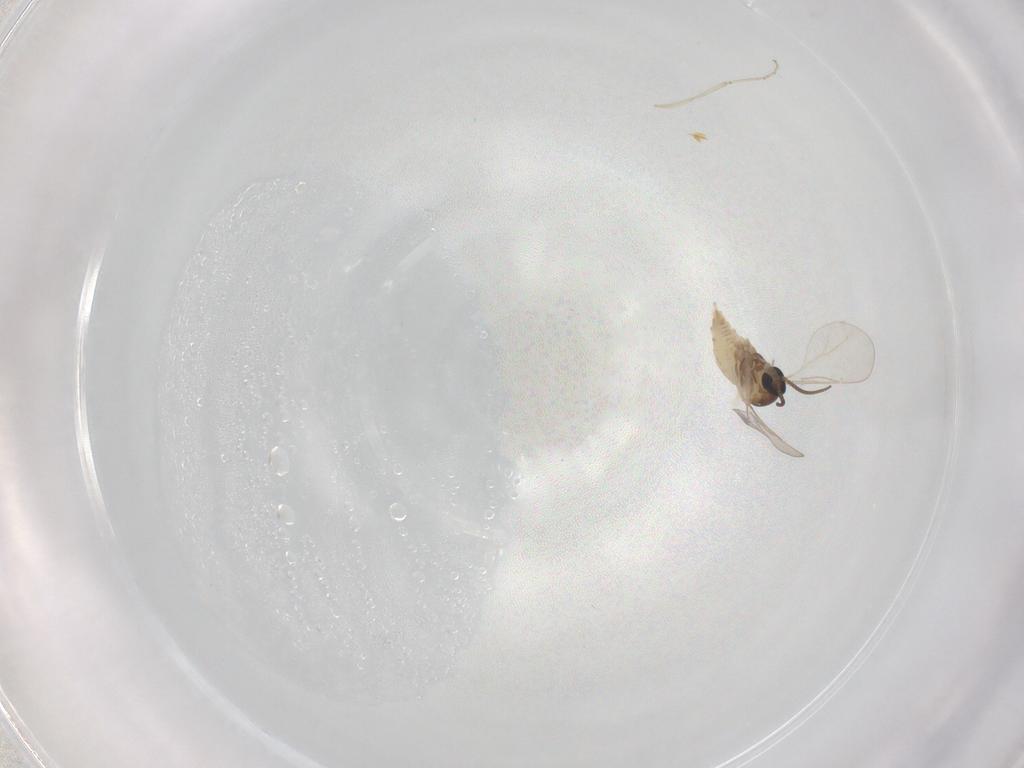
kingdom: Animalia
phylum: Arthropoda
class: Insecta
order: Diptera
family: Cecidomyiidae
